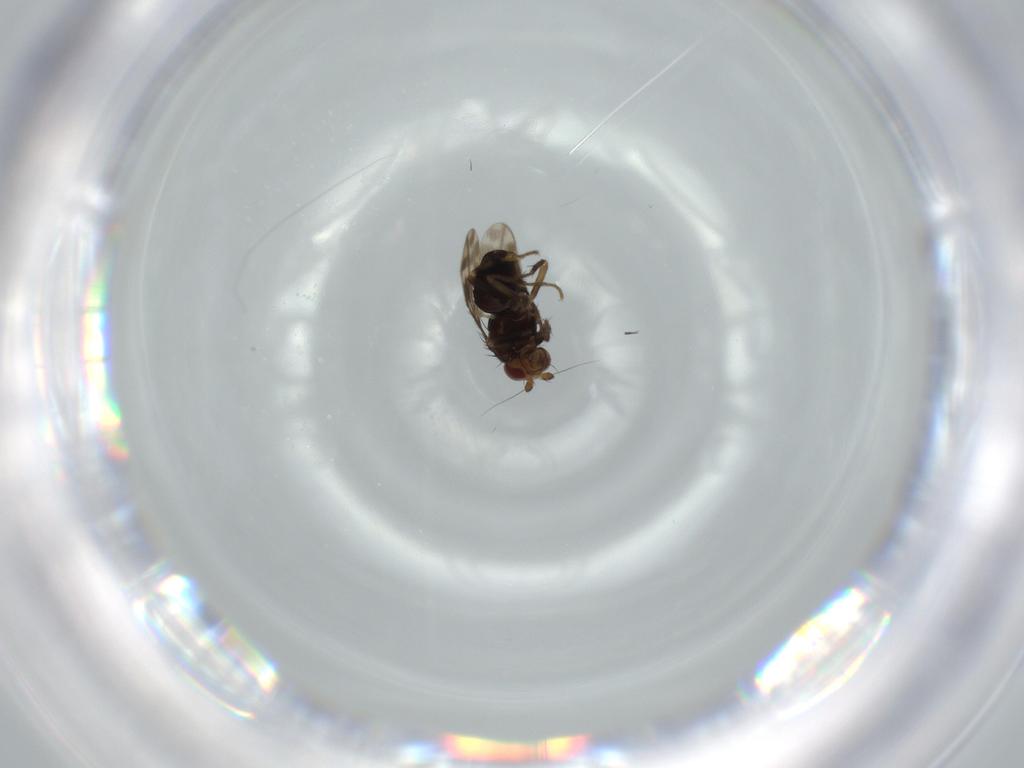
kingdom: Animalia
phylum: Arthropoda
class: Insecta
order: Diptera
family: Sphaeroceridae
